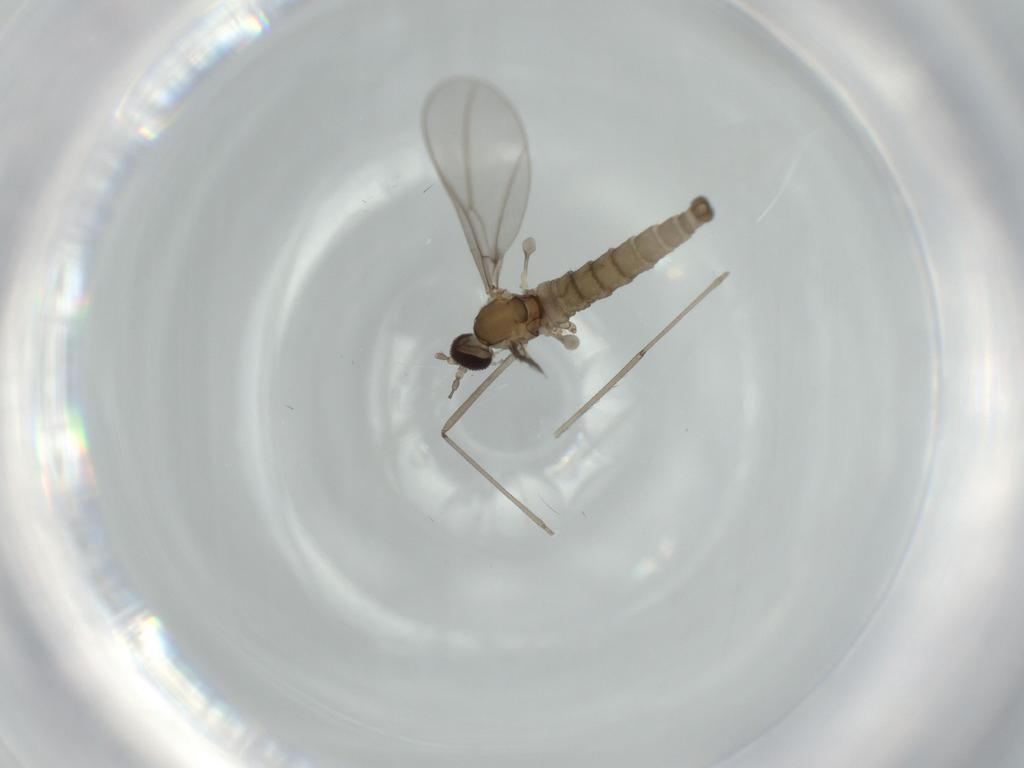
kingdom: Animalia
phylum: Arthropoda
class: Insecta
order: Diptera
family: Cecidomyiidae
